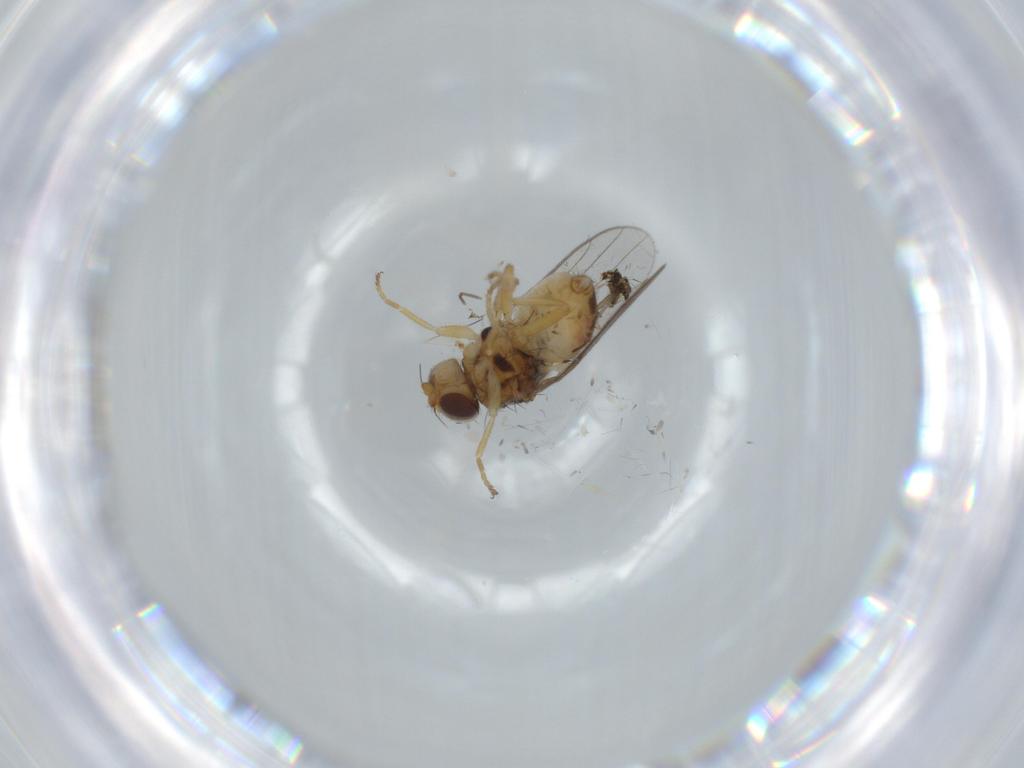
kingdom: Animalia
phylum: Arthropoda
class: Insecta
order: Diptera
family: Chloropidae
